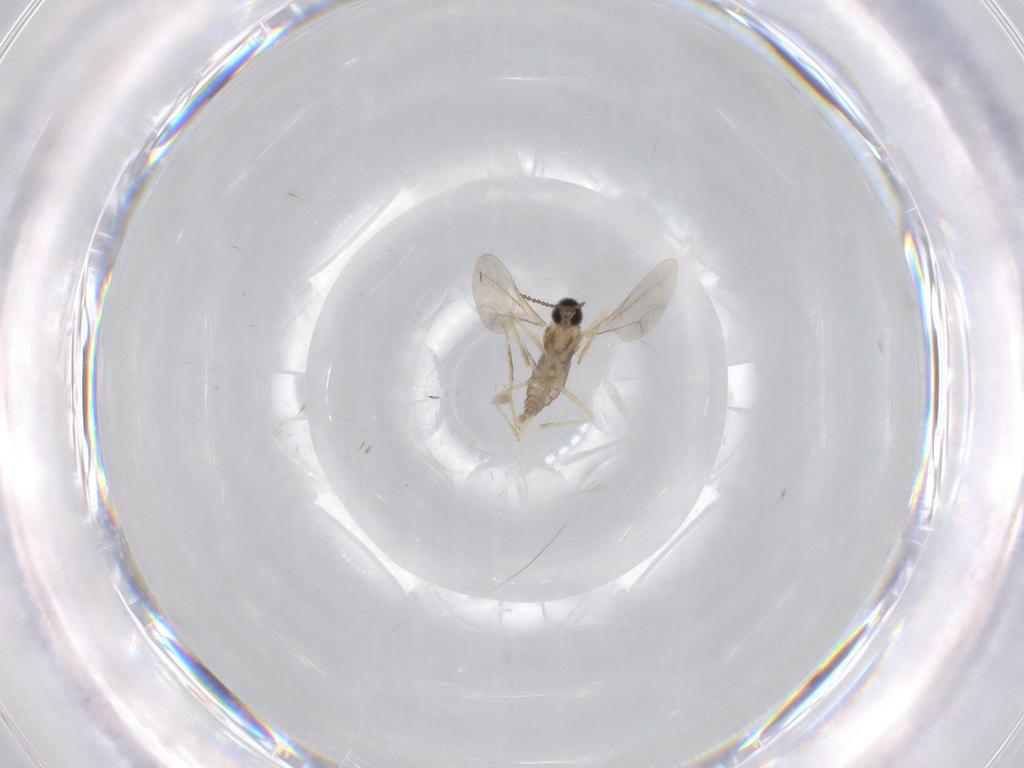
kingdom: Animalia
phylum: Arthropoda
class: Insecta
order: Diptera
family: Cecidomyiidae
